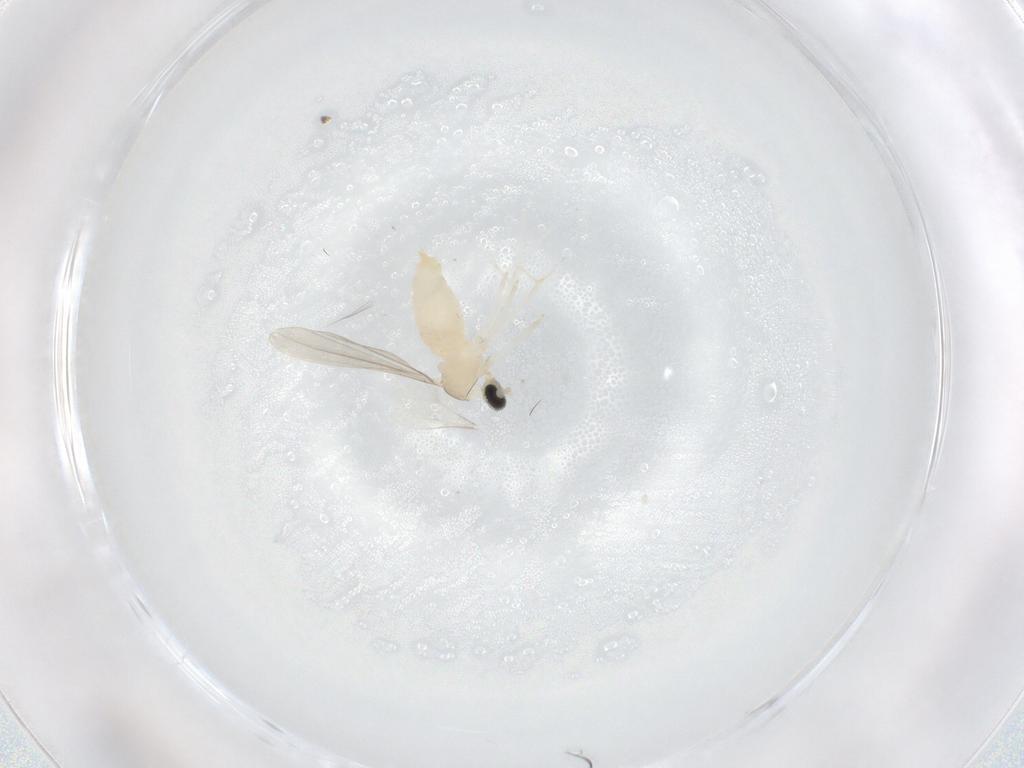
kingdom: Animalia
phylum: Arthropoda
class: Insecta
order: Diptera
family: Cecidomyiidae
